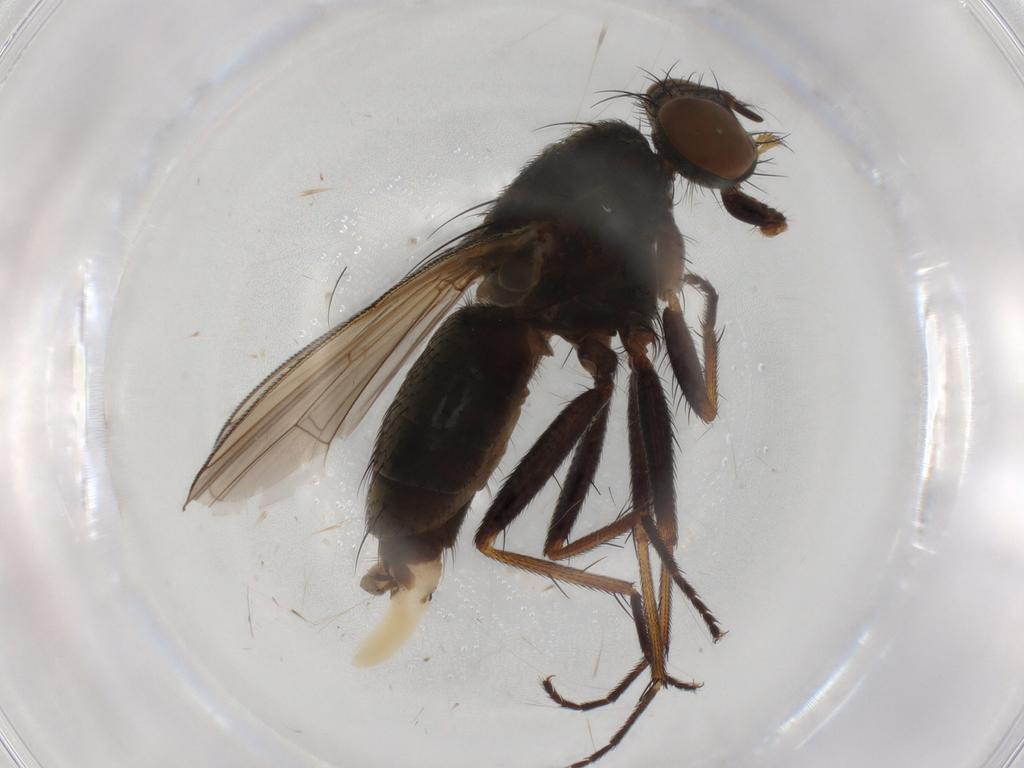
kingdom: Animalia
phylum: Arthropoda
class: Insecta
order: Diptera
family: Muscidae
